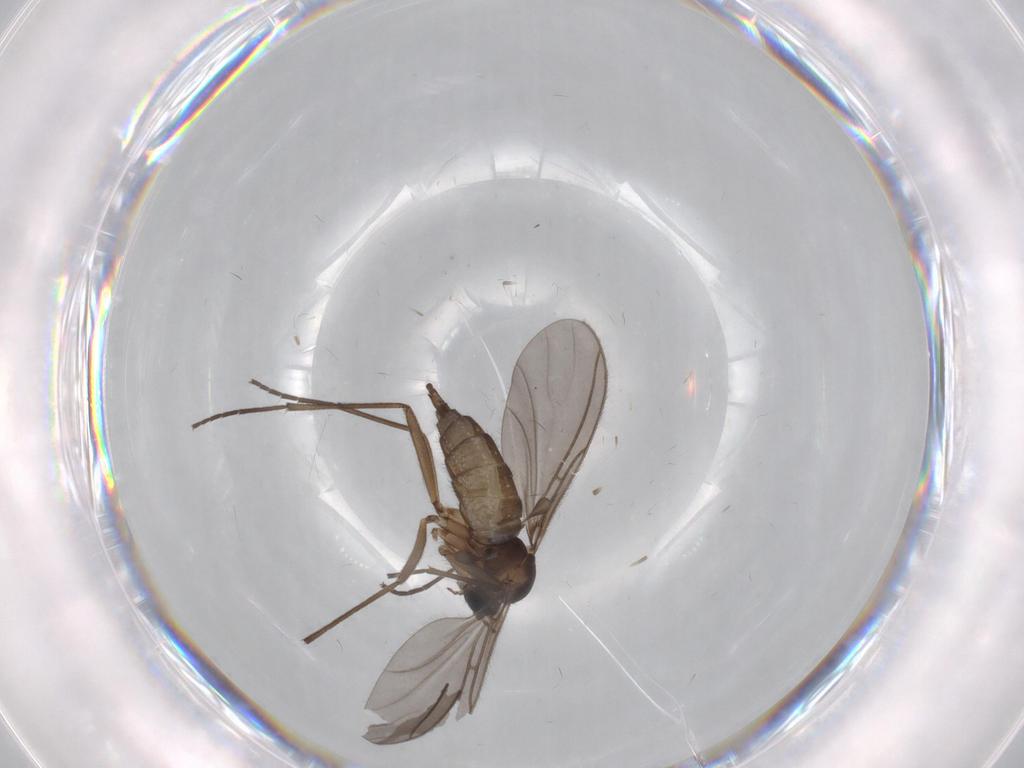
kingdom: Animalia
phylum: Arthropoda
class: Insecta
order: Diptera
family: Sciaridae
